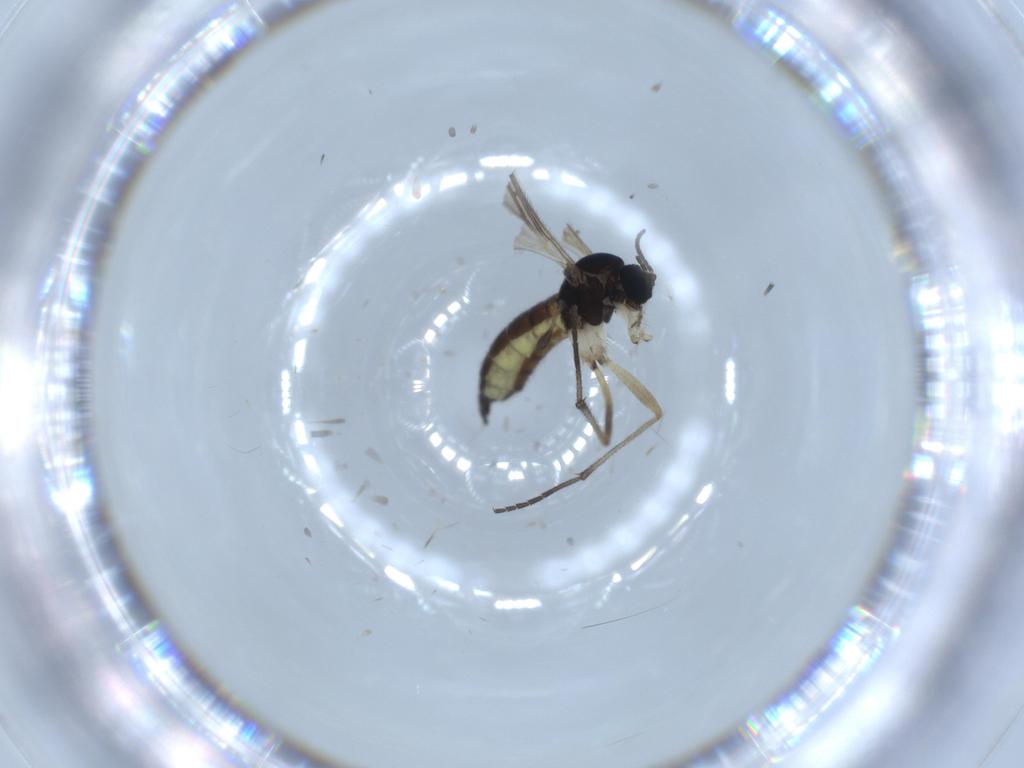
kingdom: Animalia
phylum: Arthropoda
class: Insecta
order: Diptera
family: Sciaridae
